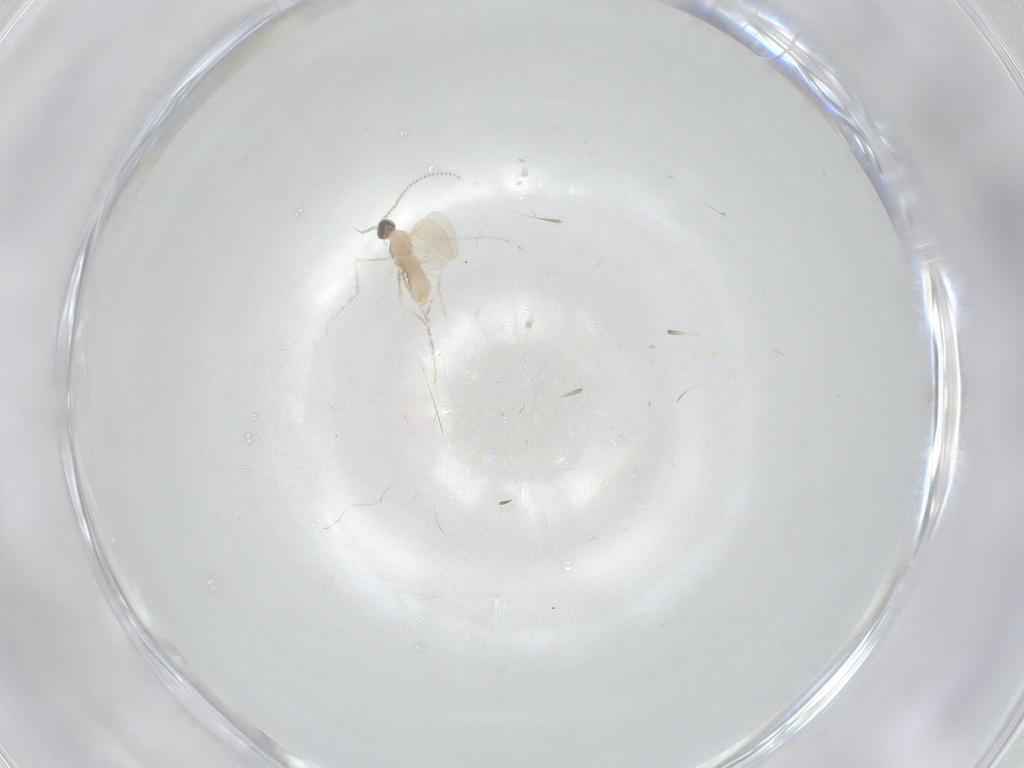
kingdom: Animalia
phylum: Arthropoda
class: Insecta
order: Diptera
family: Cecidomyiidae
